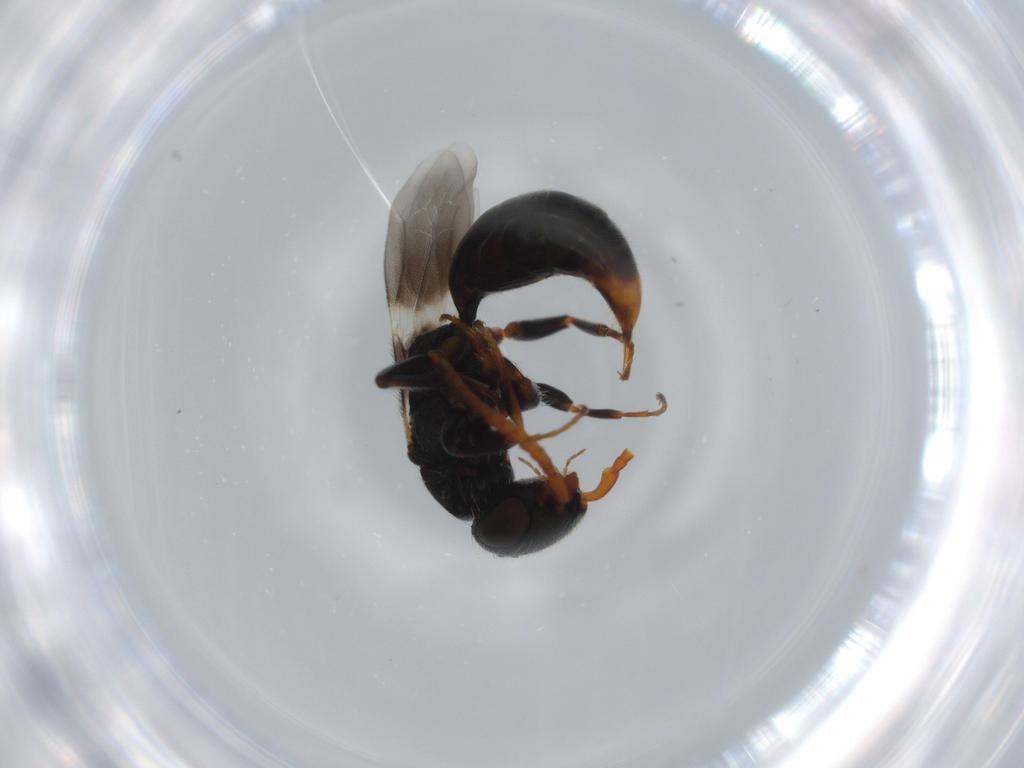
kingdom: Animalia
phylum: Arthropoda
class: Insecta
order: Hymenoptera
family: Bethylidae
